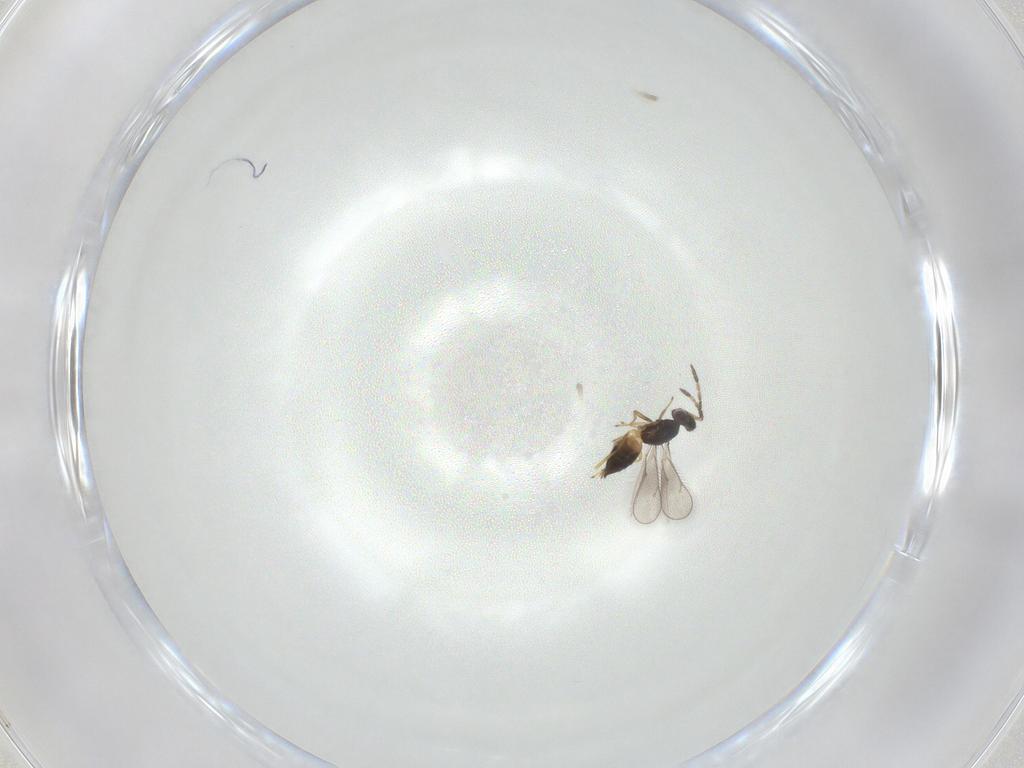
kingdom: Animalia
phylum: Arthropoda
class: Insecta
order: Hymenoptera
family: Eulophidae
